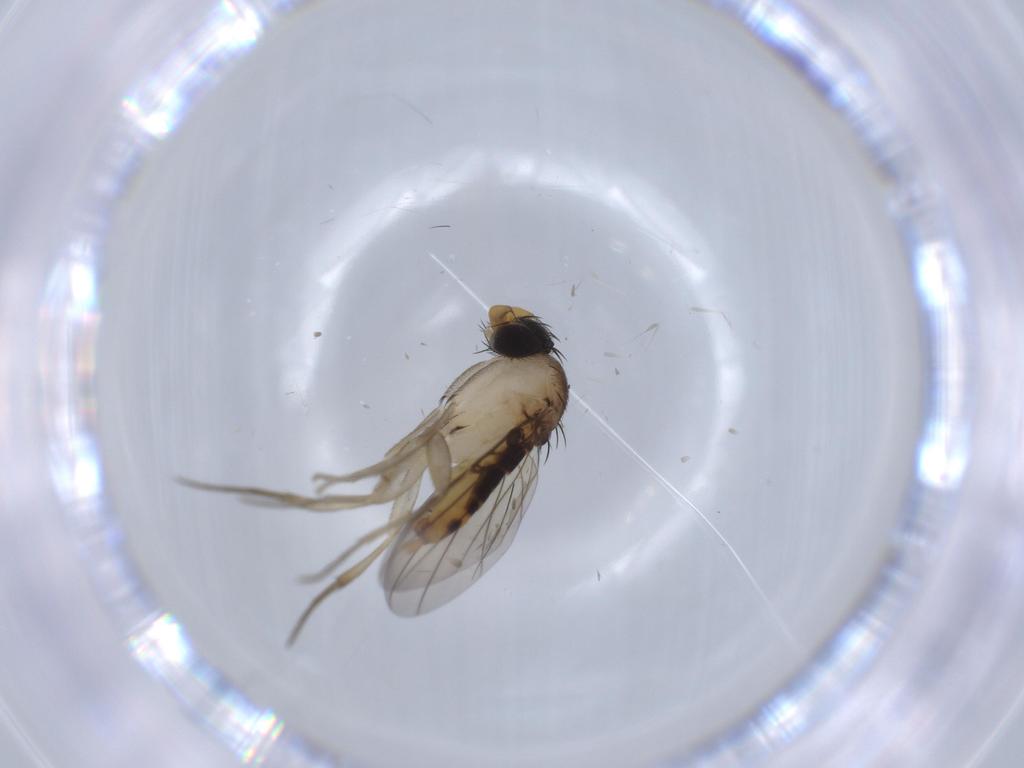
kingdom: Animalia
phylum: Arthropoda
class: Insecta
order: Diptera
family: Phoridae
